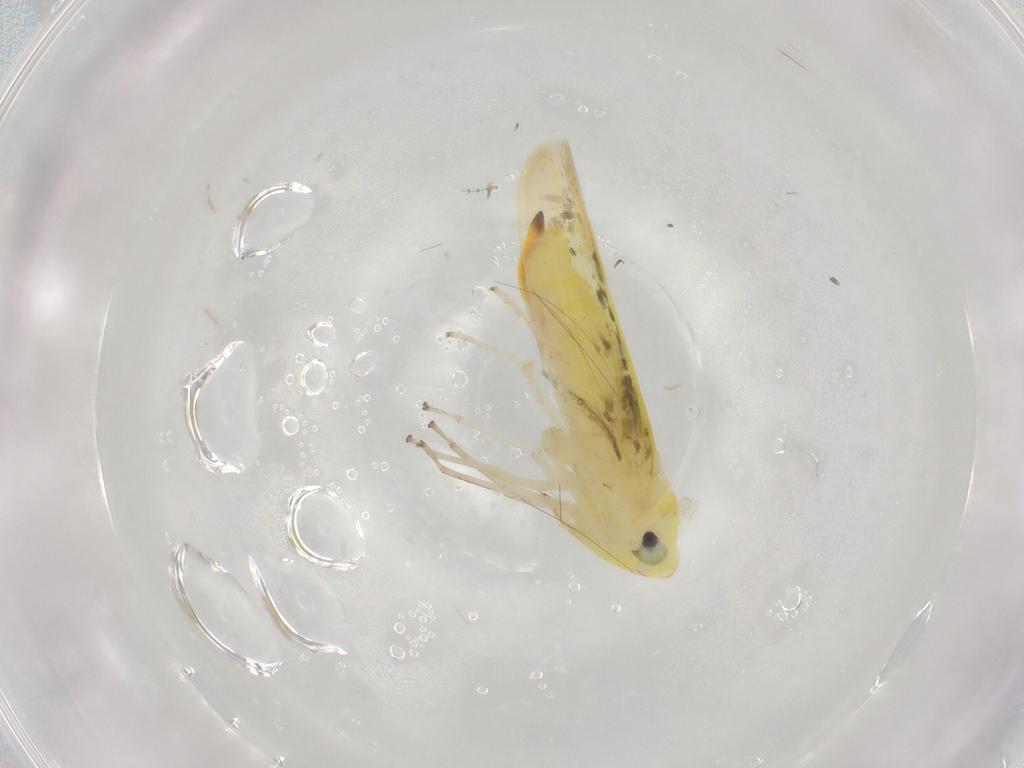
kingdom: Animalia
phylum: Arthropoda
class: Insecta
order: Hemiptera
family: Cicadellidae
